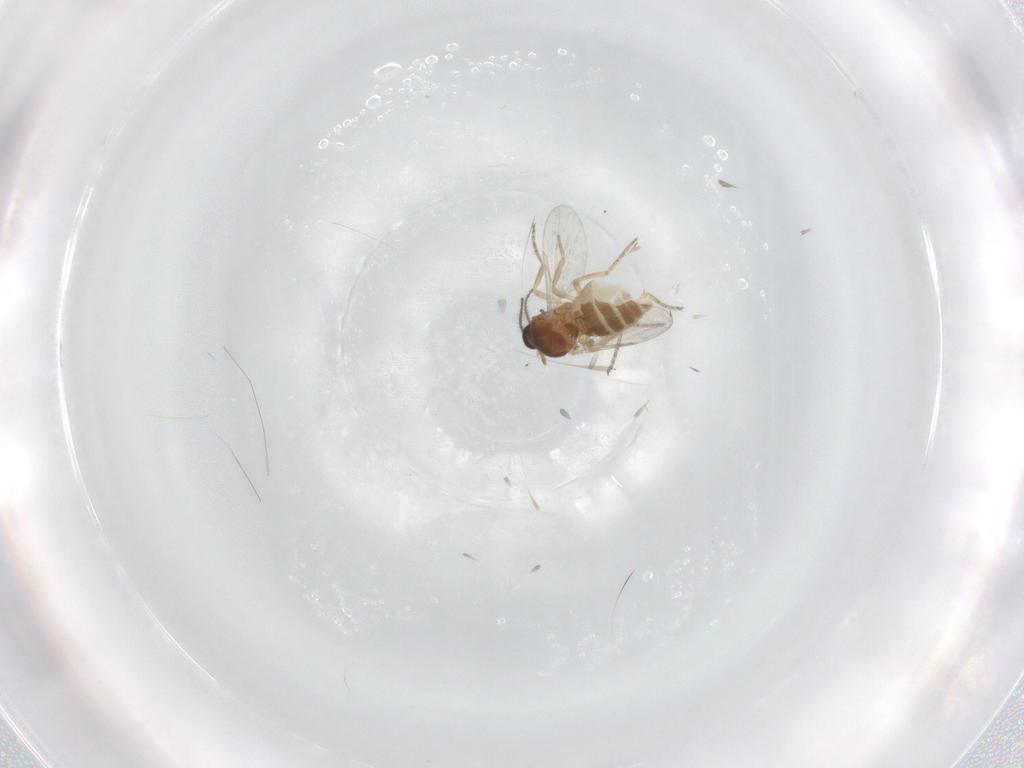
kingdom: Animalia
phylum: Arthropoda
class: Insecta
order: Diptera
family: Ceratopogonidae
